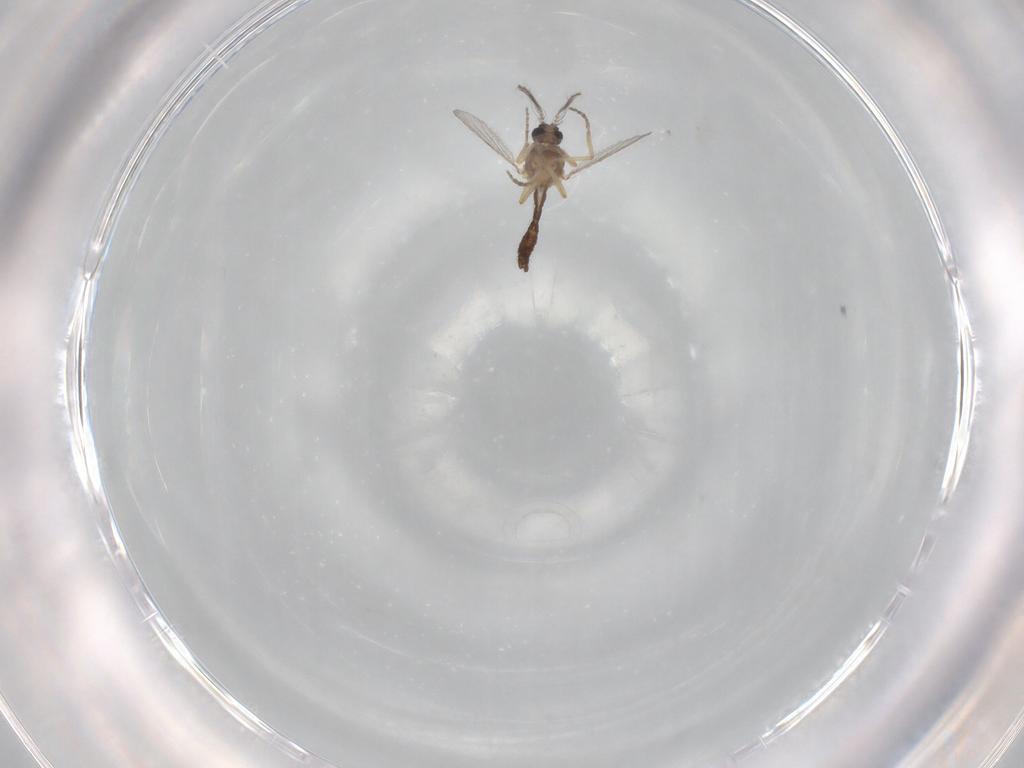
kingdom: Animalia
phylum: Arthropoda
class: Insecta
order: Diptera
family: Ceratopogonidae
